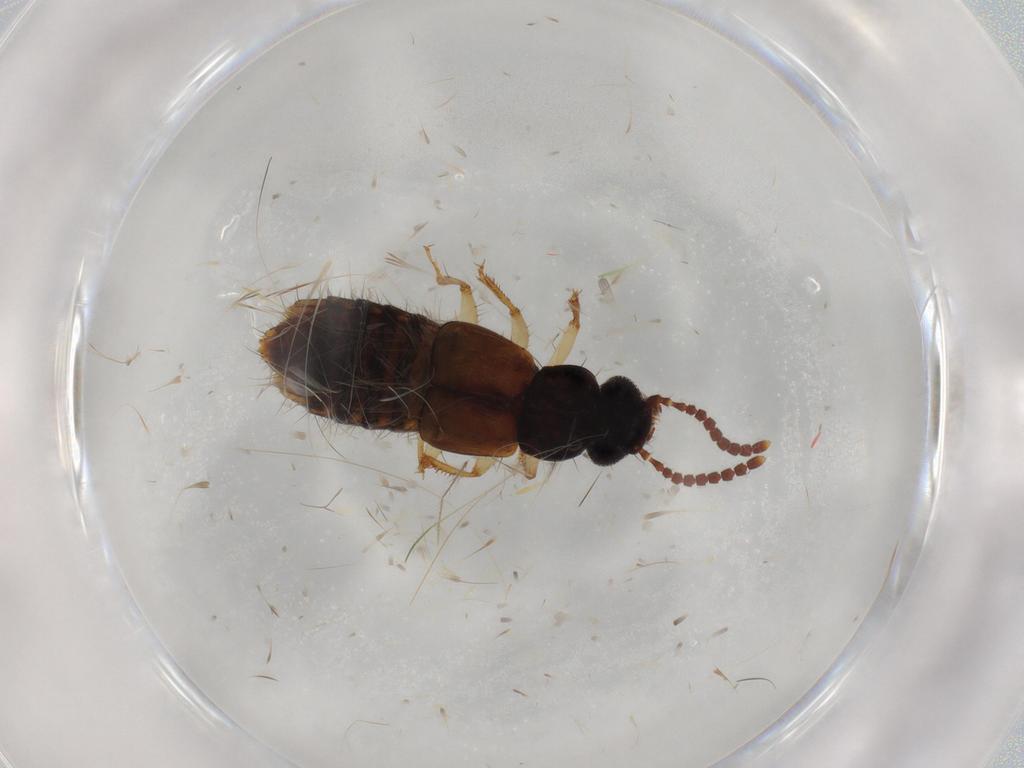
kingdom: Animalia
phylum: Arthropoda
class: Insecta
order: Coleoptera
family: Staphylinidae
